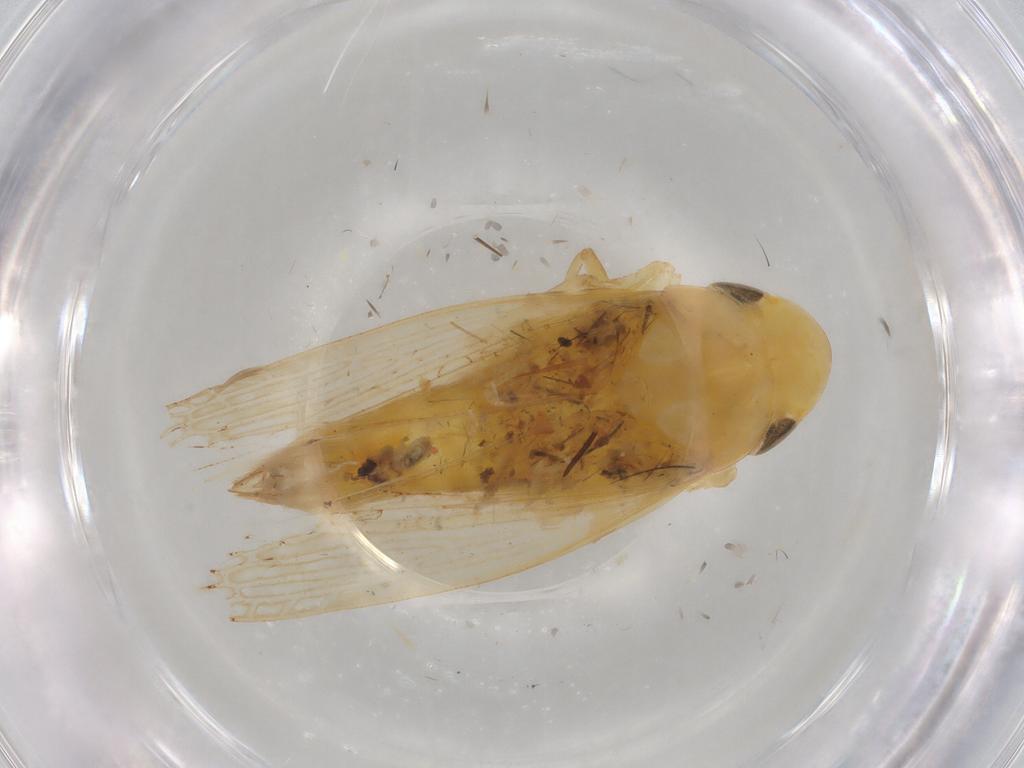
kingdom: Animalia
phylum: Arthropoda
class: Insecta
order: Hemiptera
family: Cicadellidae
